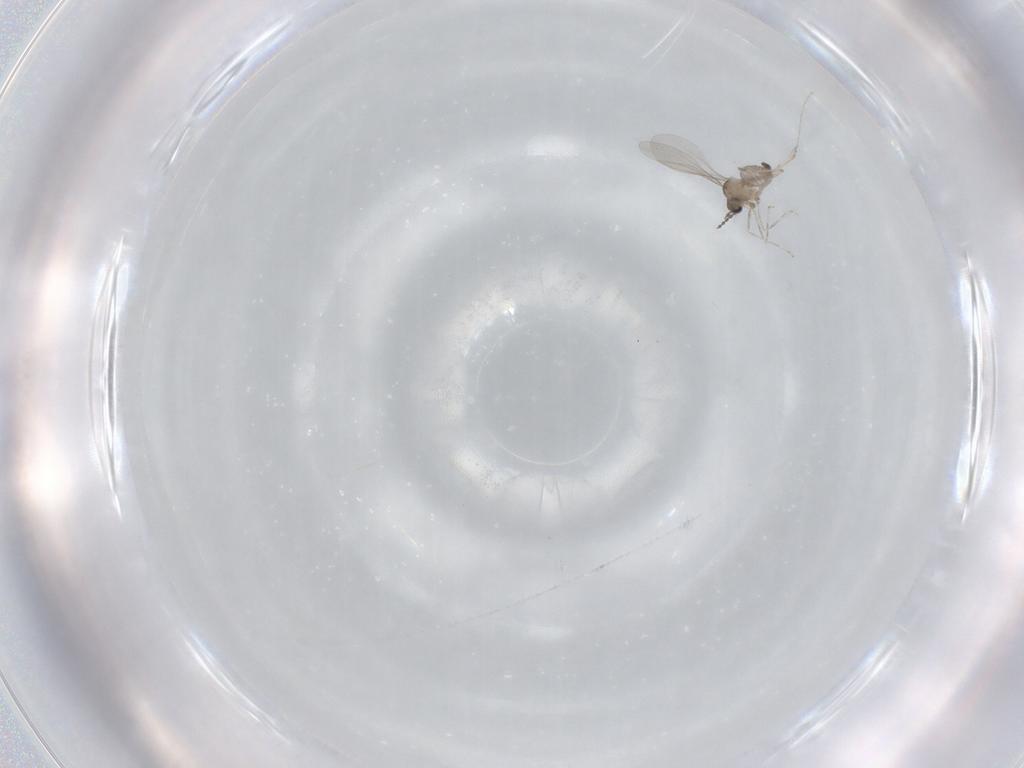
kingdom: Animalia
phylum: Arthropoda
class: Insecta
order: Diptera
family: Cecidomyiidae
